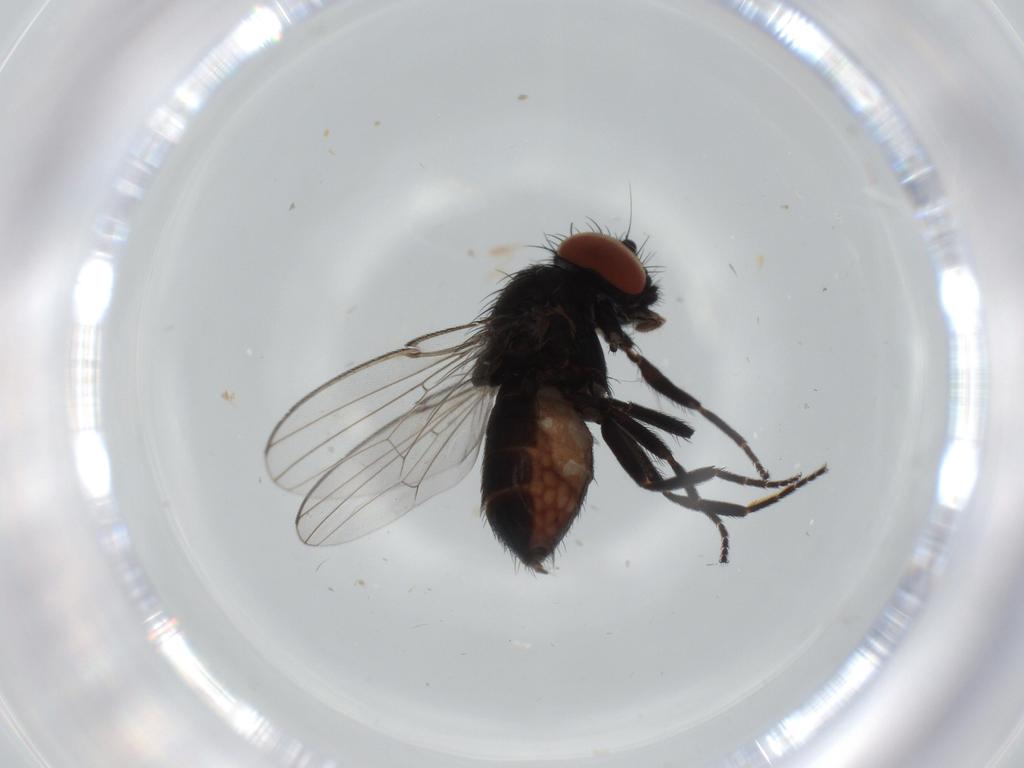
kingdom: Animalia
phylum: Arthropoda
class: Insecta
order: Diptera
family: Milichiidae
